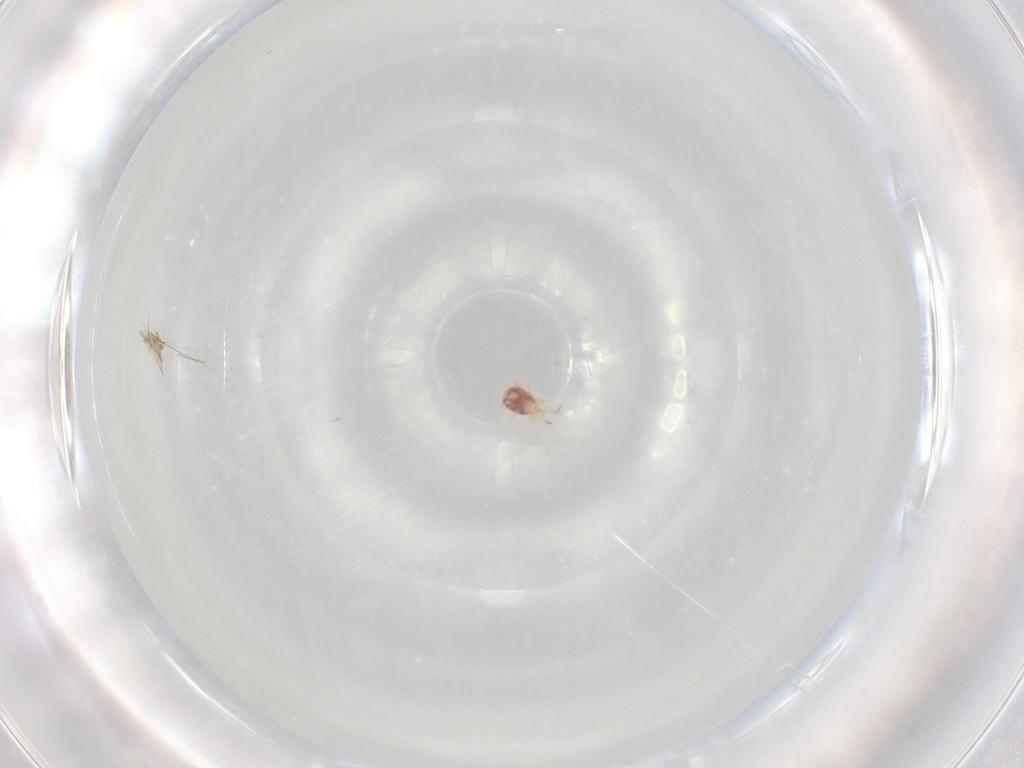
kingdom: Animalia
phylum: Arthropoda
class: Arachnida
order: Trombidiformes
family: Eupodidae
